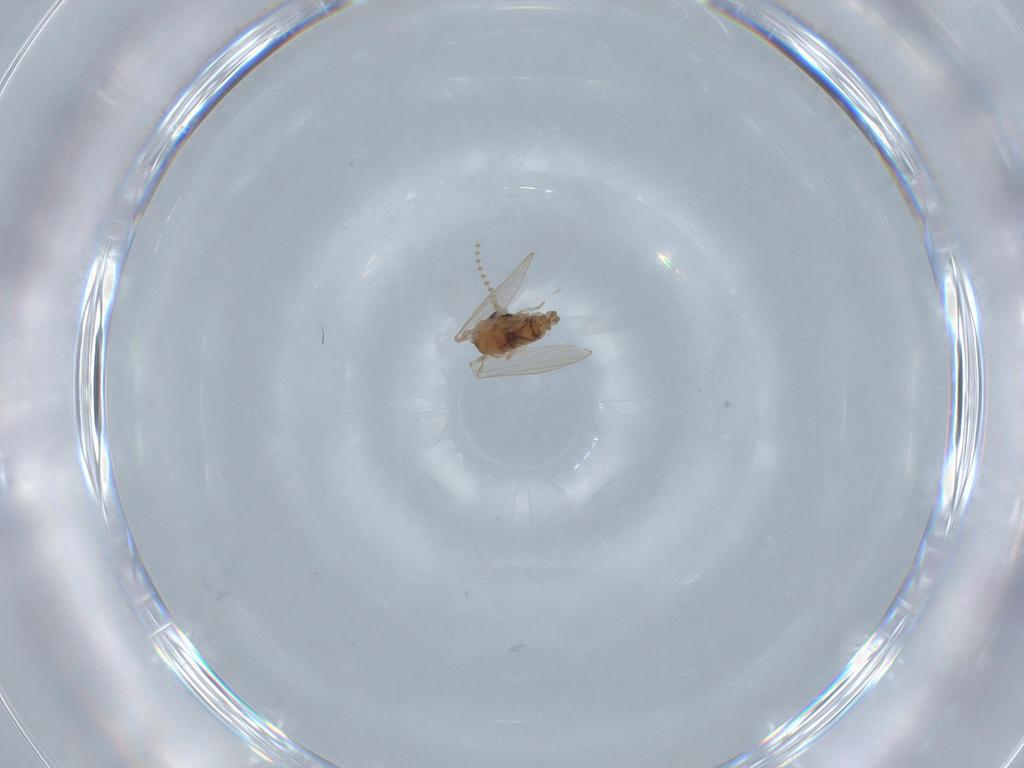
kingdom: Animalia
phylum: Arthropoda
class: Insecta
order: Diptera
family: Psychodidae
